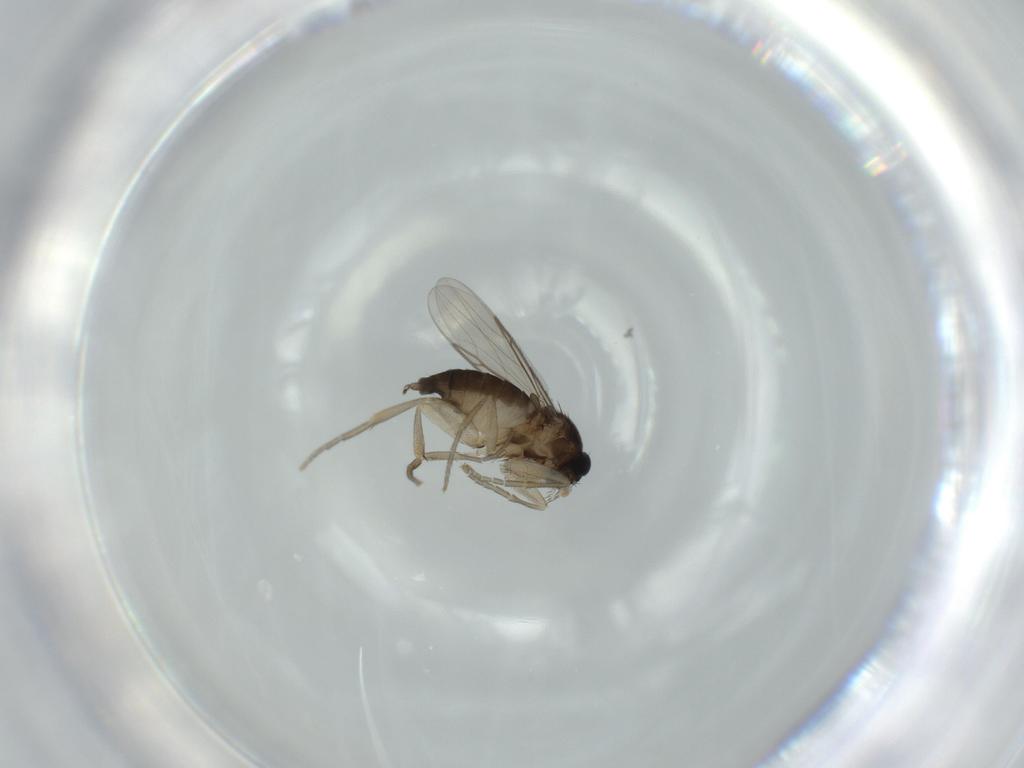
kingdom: Animalia
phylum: Arthropoda
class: Insecta
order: Diptera
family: Phoridae
